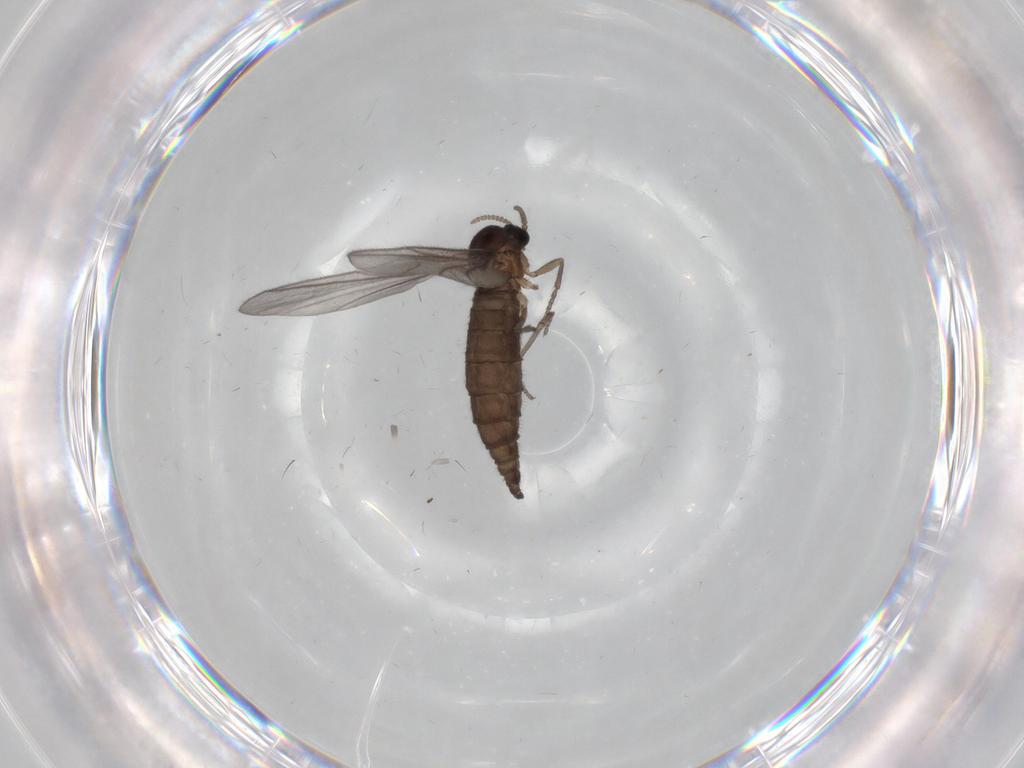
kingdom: Animalia
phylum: Arthropoda
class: Insecta
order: Diptera
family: Sciaridae
